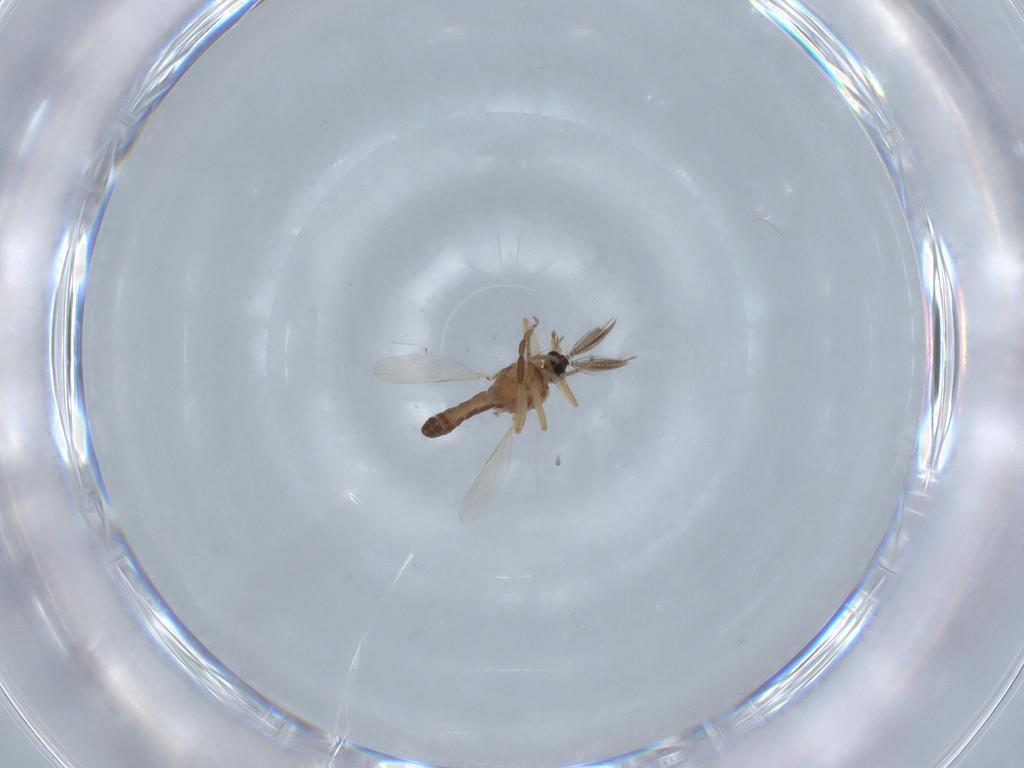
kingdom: Animalia
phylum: Arthropoda
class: Insecta
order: Diptera
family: Ceratopogonidae
